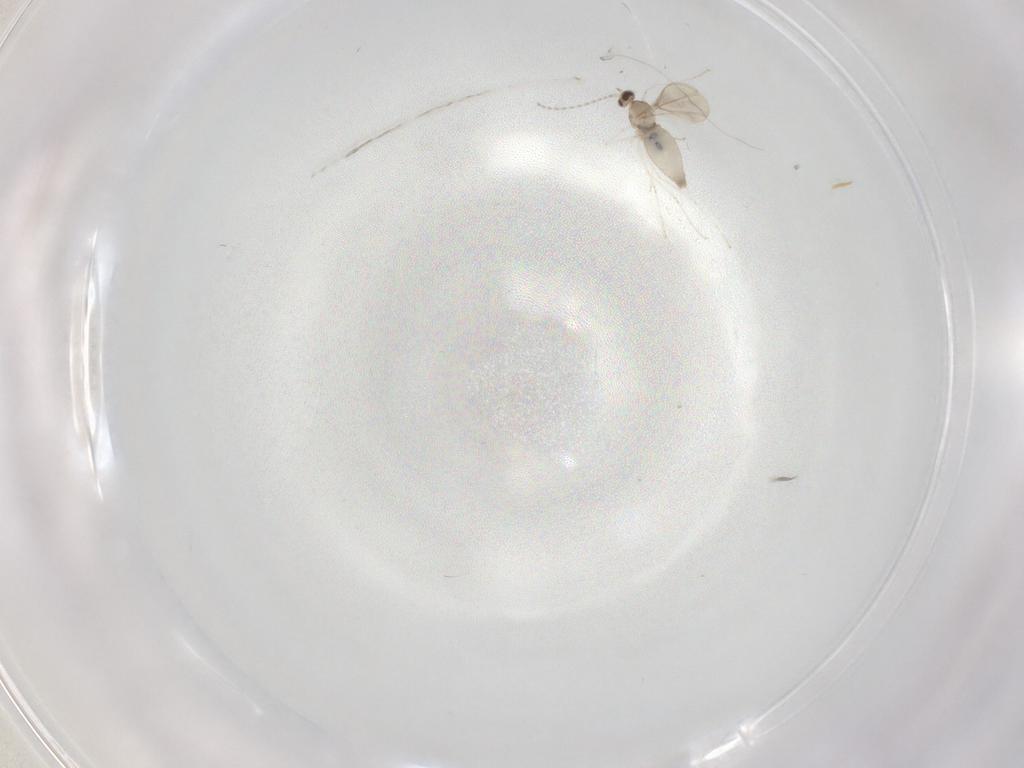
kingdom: Animalia
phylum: Arthropoda
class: Insecta
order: Diptera
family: Cecidomyiidae
